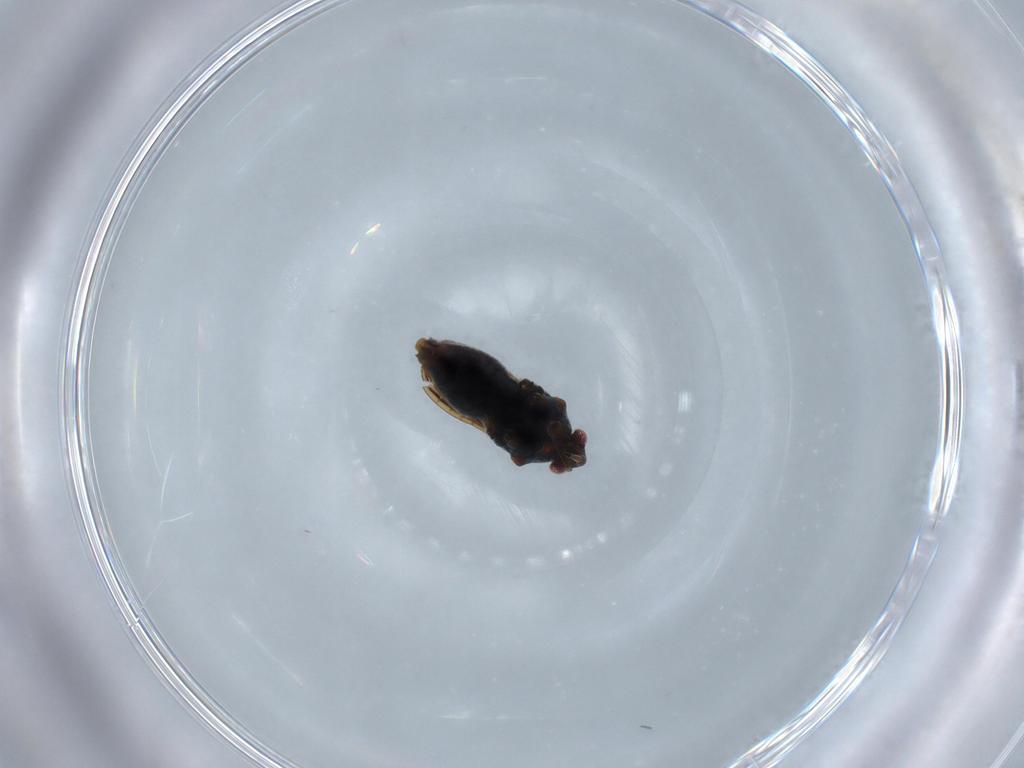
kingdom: Animalia
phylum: Arthropoda
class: Insecta
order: Hemiptera
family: Veliidae
